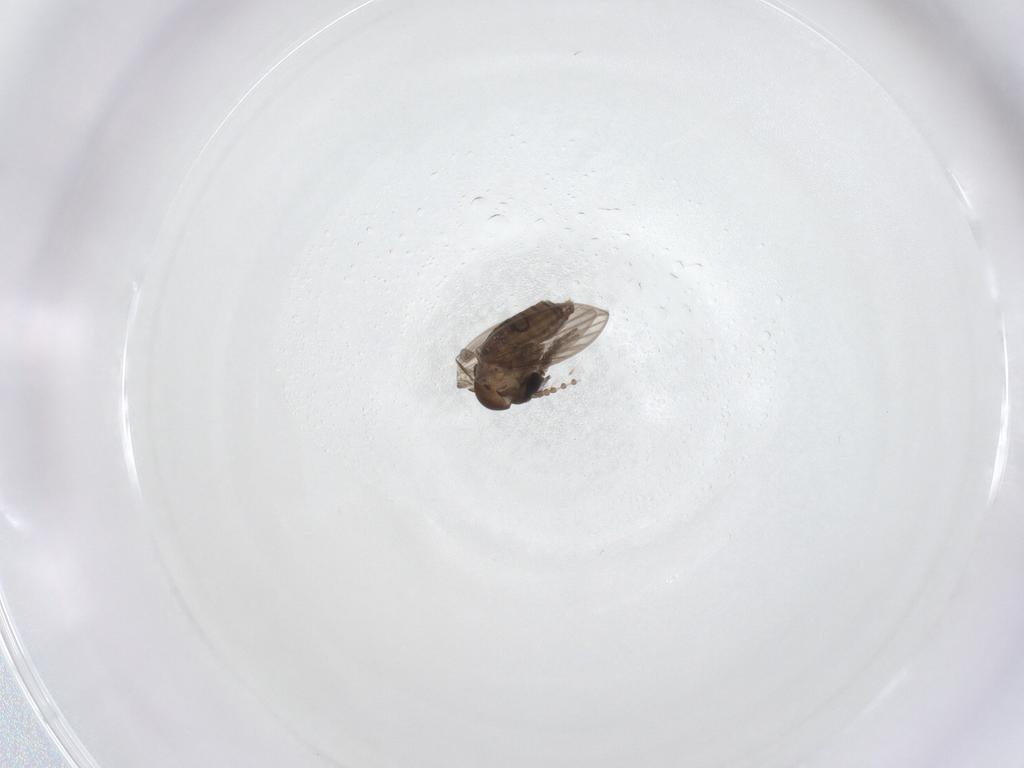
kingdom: Animalia
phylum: Arthropoda
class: Insecta
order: Diptera
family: Psychodidae
